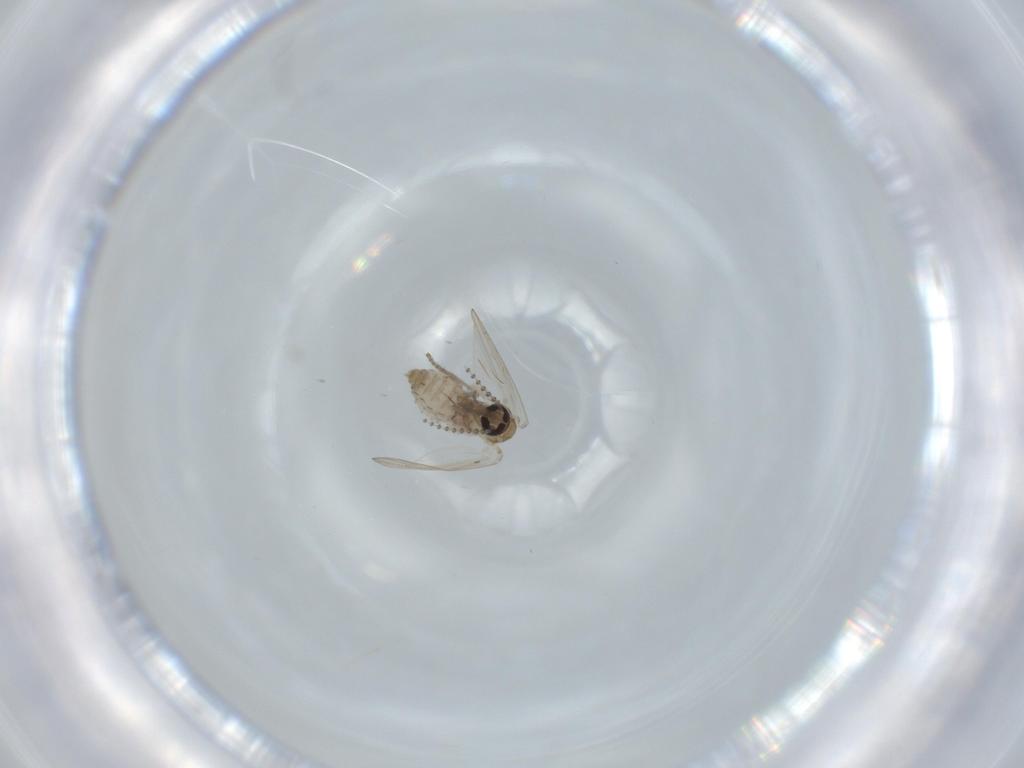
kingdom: Animalia
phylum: Arthropoda
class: Insecta
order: Diptera
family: Psychodidae
